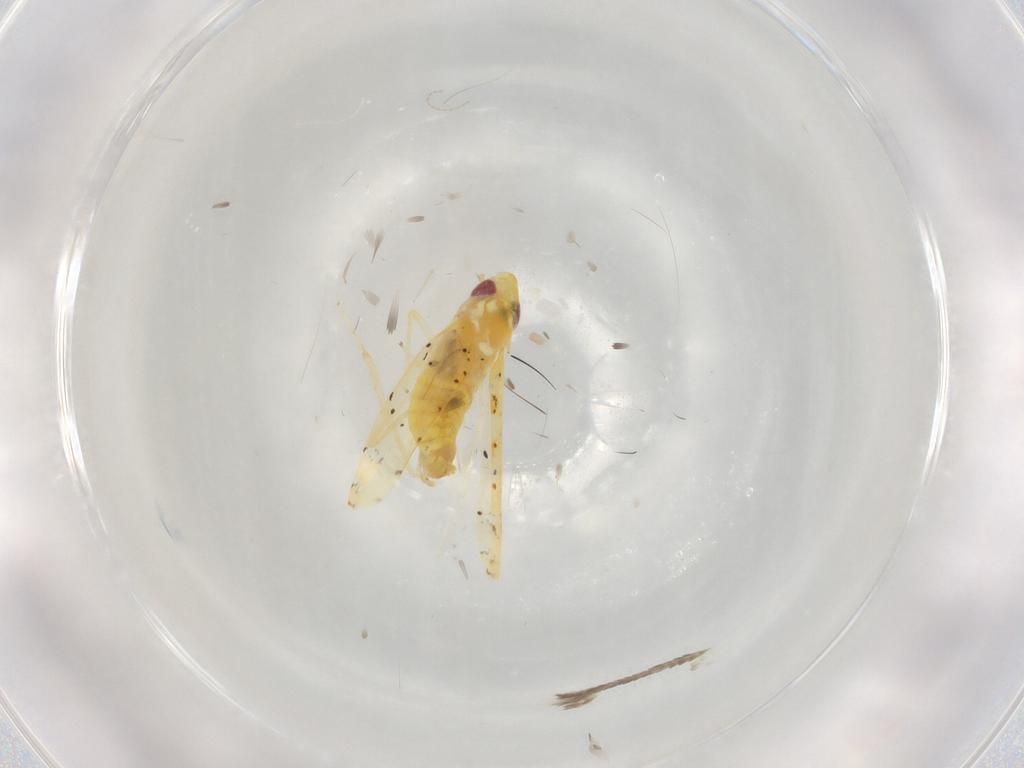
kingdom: Animalia
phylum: Arthropoda
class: Insecta
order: Hemiptera
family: Cicadellidae
